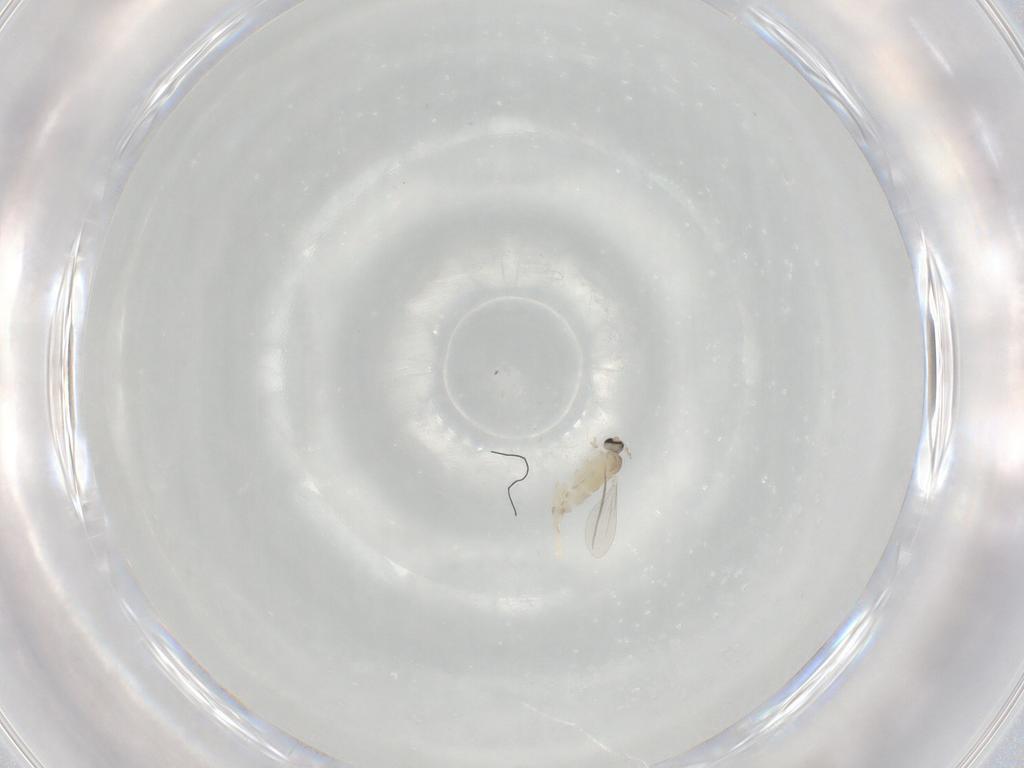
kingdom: Animalia
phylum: Arthropoda
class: Insecta
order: Diptera
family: Cecidomyiidae
